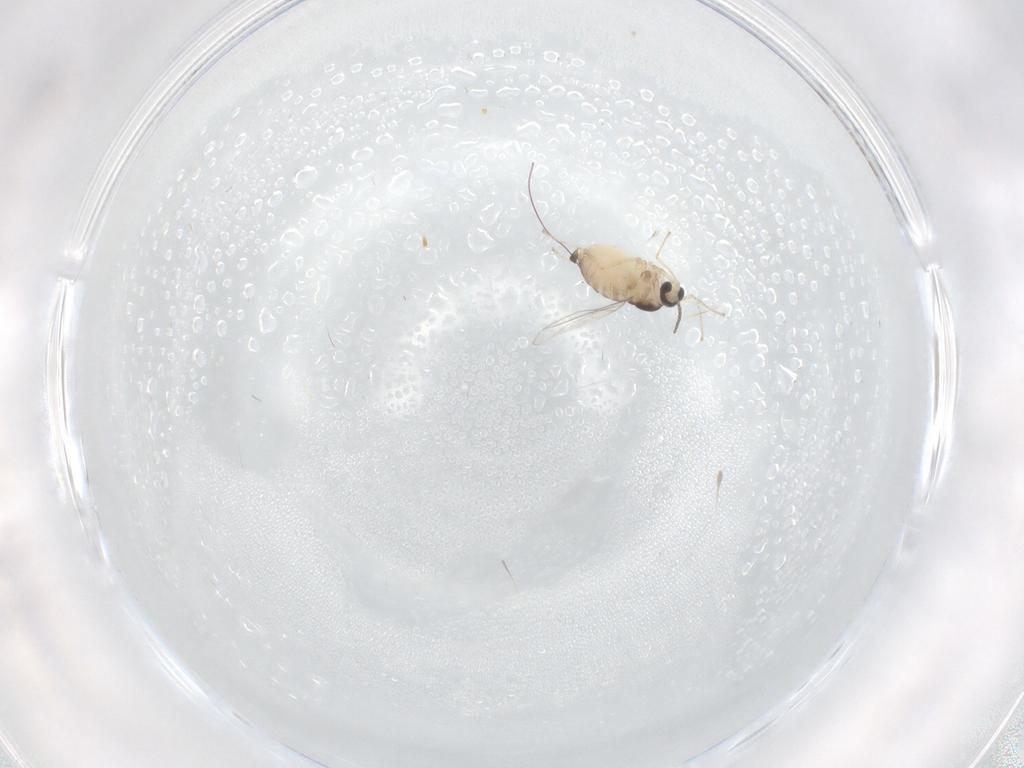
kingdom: Animalia
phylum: Arthropoda
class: Insecta
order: Diptera
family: Cecidomyiidae
